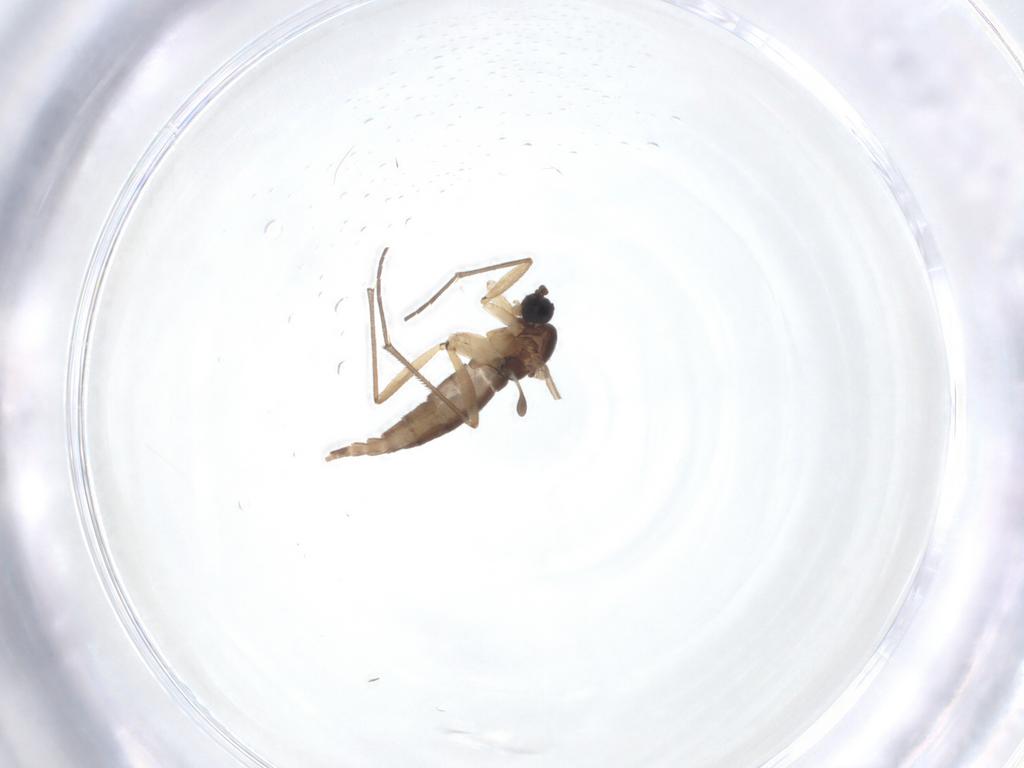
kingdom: Animalia
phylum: Arthropoda
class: Insecta
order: Diptera
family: Sciaridae
